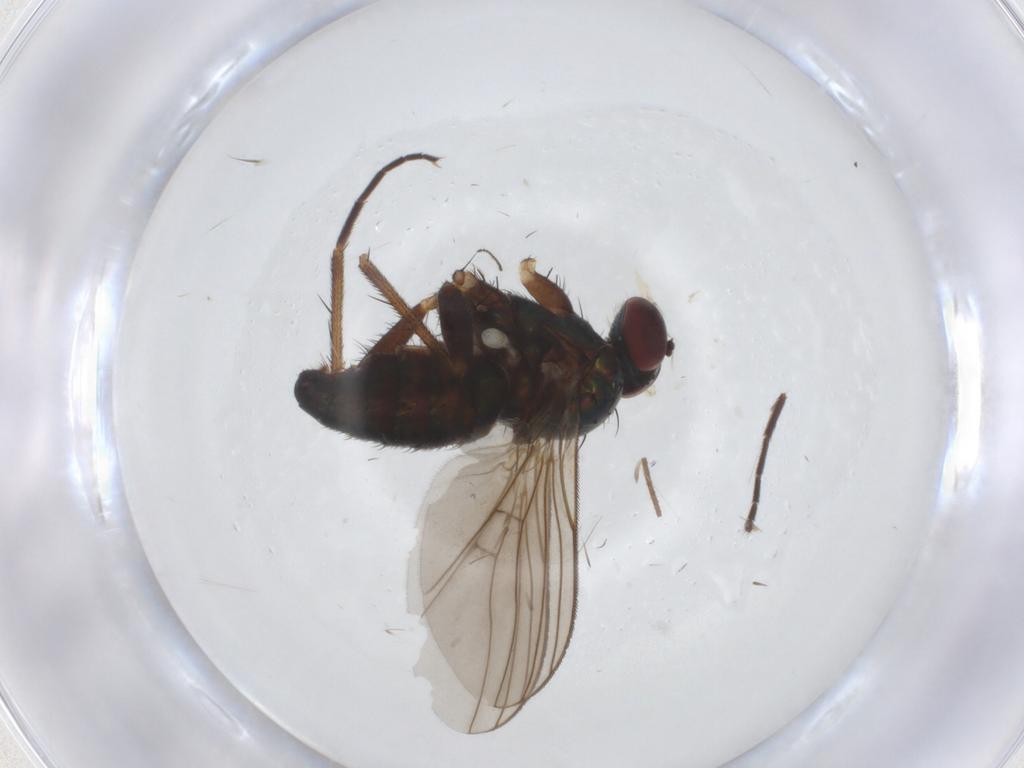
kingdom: Animalia
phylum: Arthropoda
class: Insecta
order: Diptera
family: Dolichopodidae
